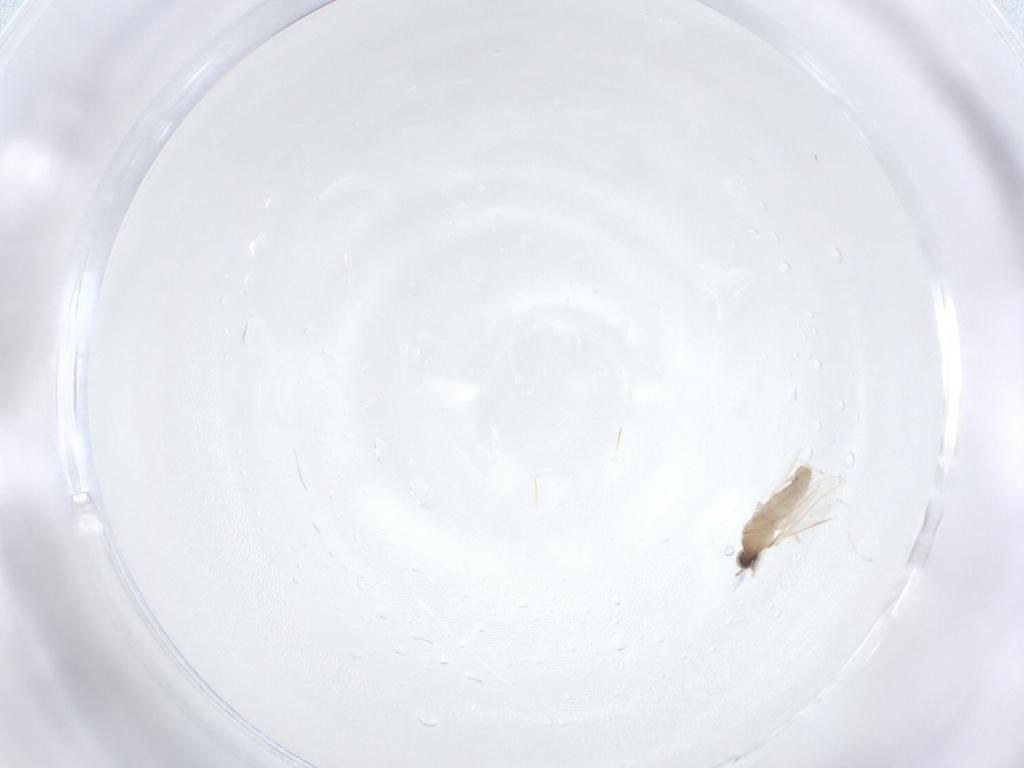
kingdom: Animalia
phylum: Arthropoda
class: Insecta
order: Diptera
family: Cecidomyiidae
